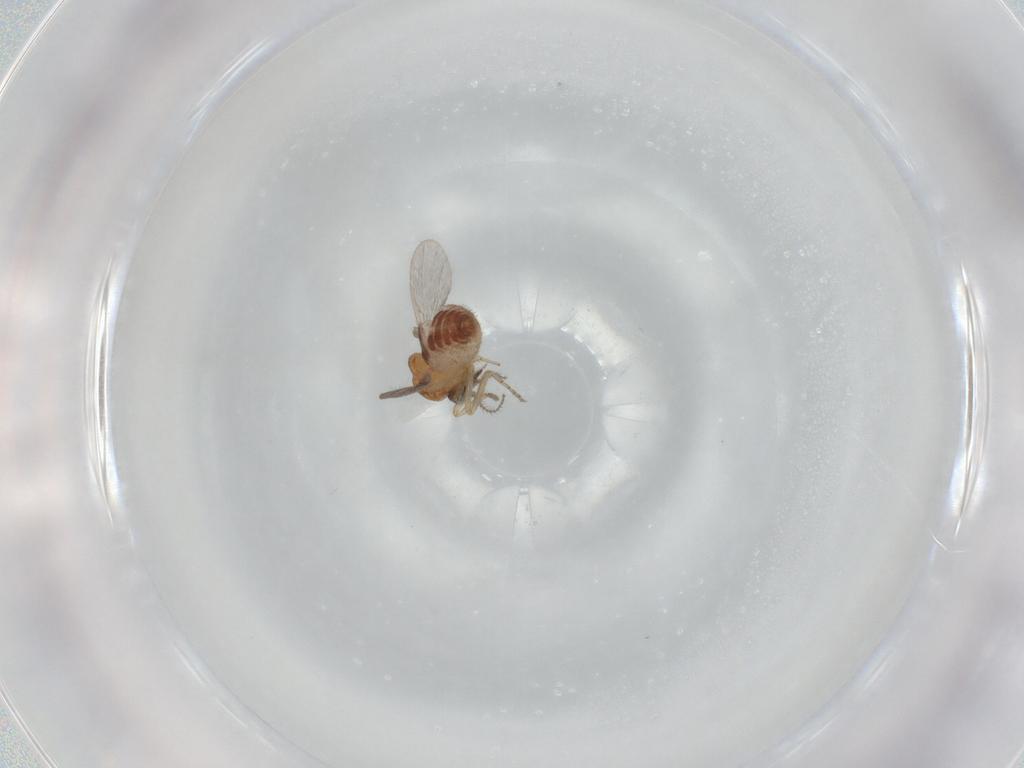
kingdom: Animalia
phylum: Arthropoda
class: Insecta
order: Diptera
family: Ceratopogonidae
